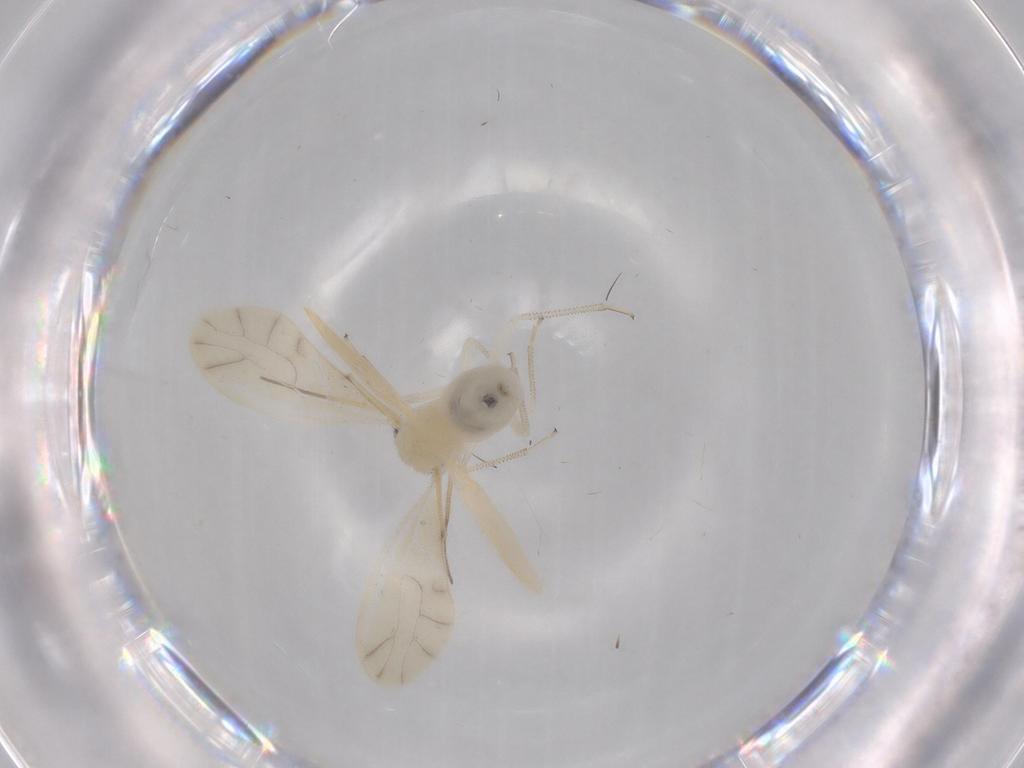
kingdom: Animalia
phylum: Arthropoda
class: Insecta
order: Psocodea
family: Caeciliusidae
